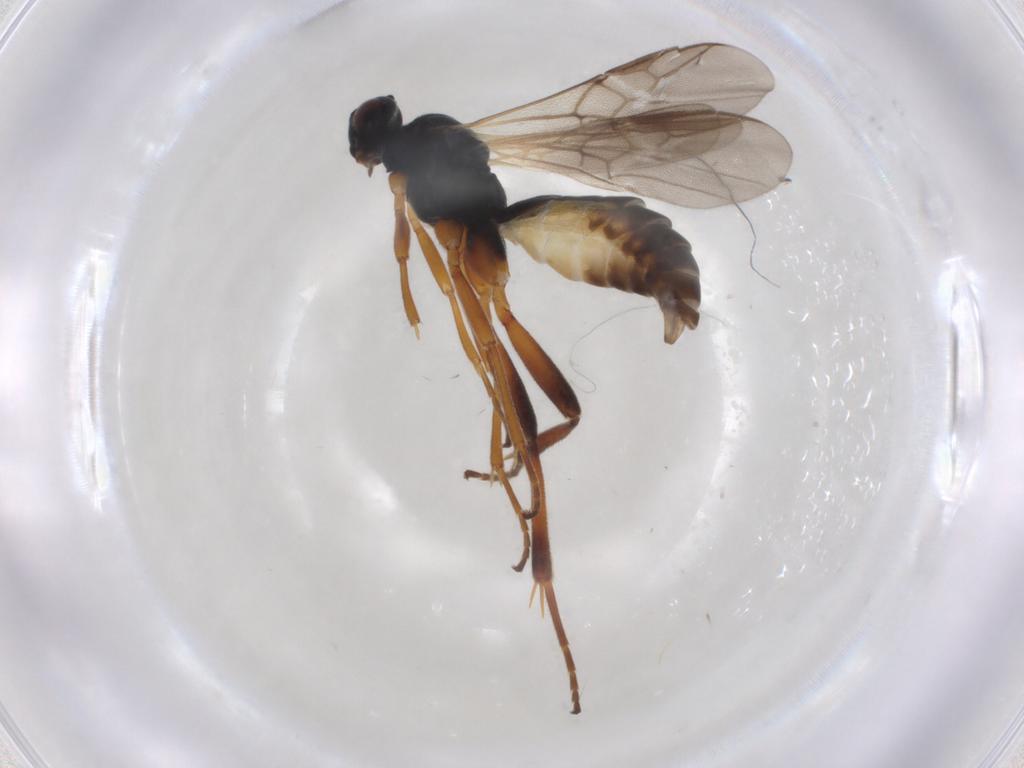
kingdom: Animalia
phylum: Arthropoda
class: Insecta
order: Hymenoptera
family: Braconidae
